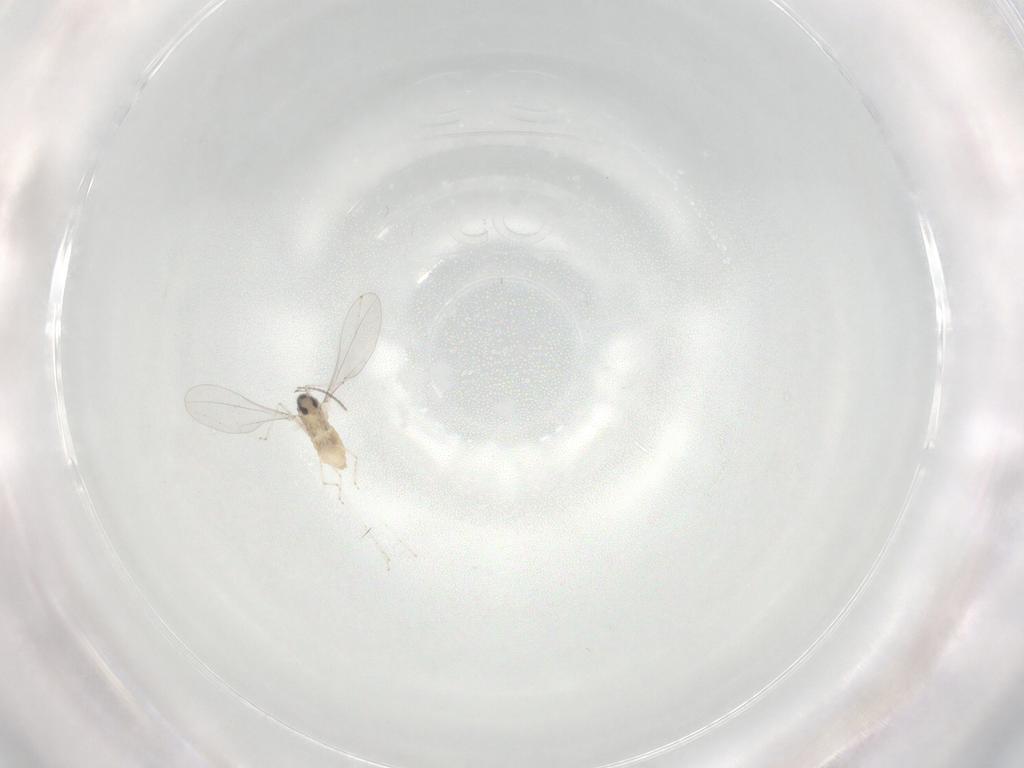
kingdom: Animalia
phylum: Arthropoda
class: Insecta
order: Diptera
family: Cecidomyiidae
